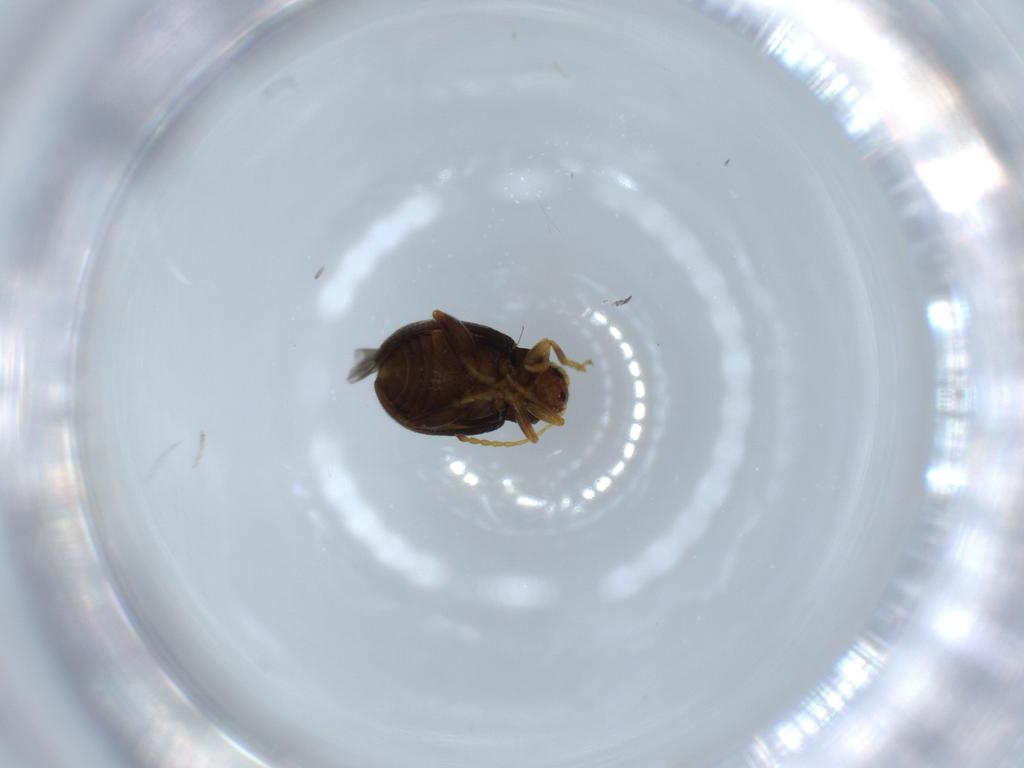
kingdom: Animalia
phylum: Arthropoda
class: Insecta
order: Coleoptera
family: Chrysomelidae
